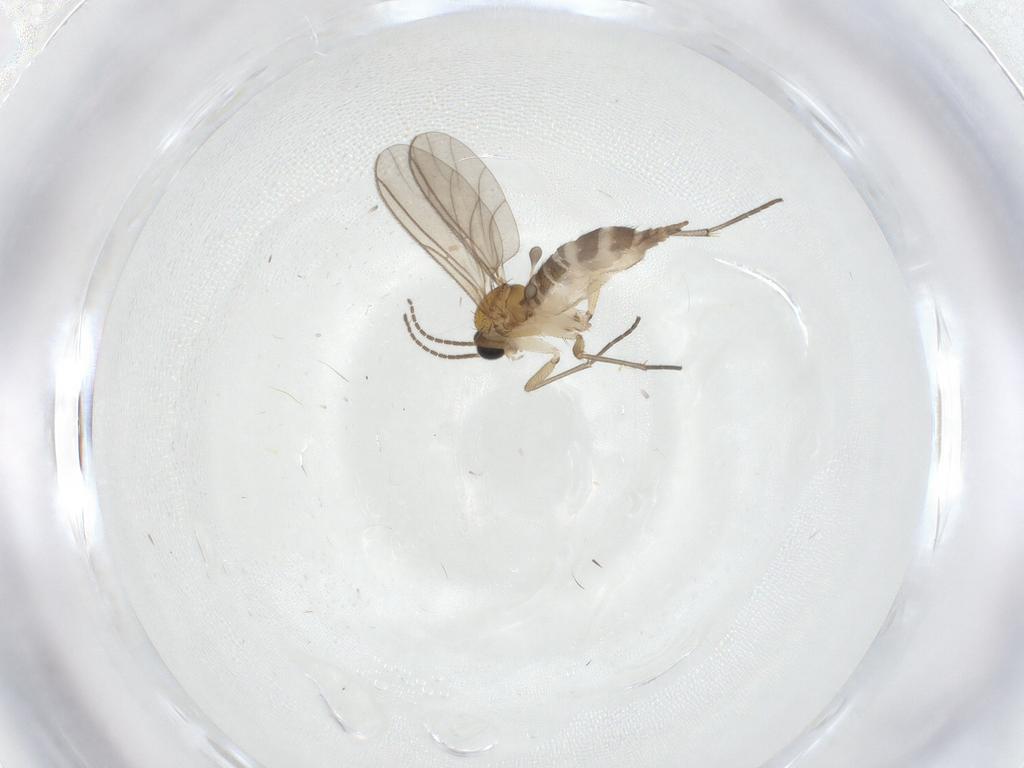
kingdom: Animalia
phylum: Arthropoda
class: Insecta
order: Diptera
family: Sciaridae
